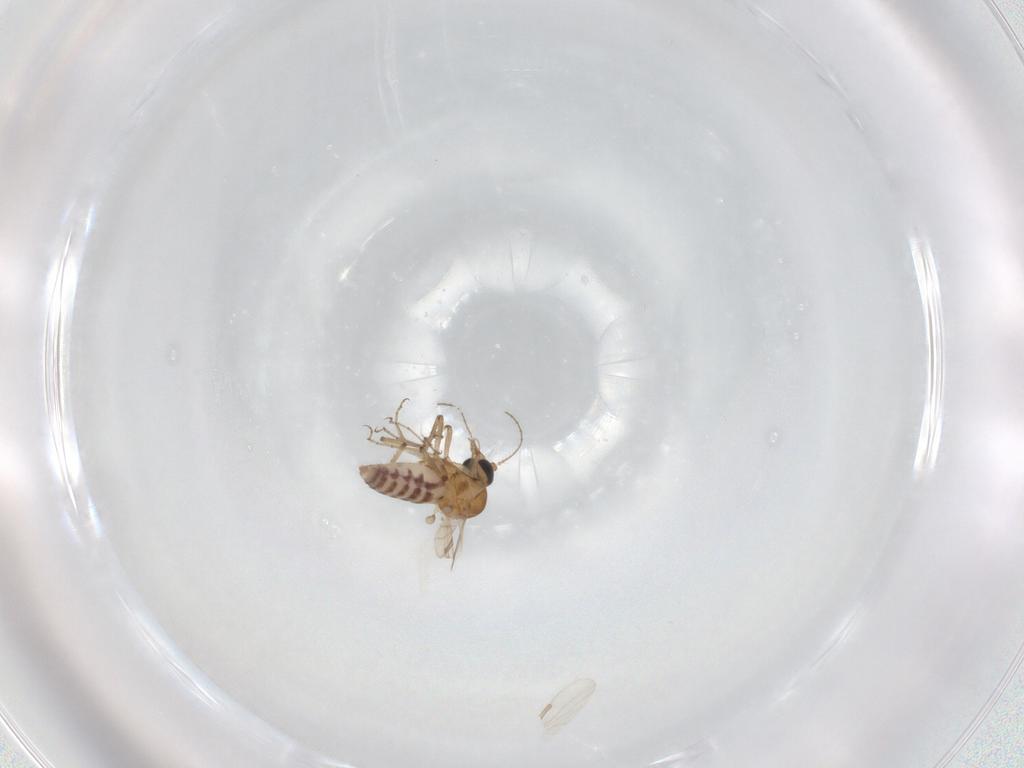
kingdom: Animalia
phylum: Arthropoda
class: Insecta
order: Diptera
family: Ceratopogonidae
